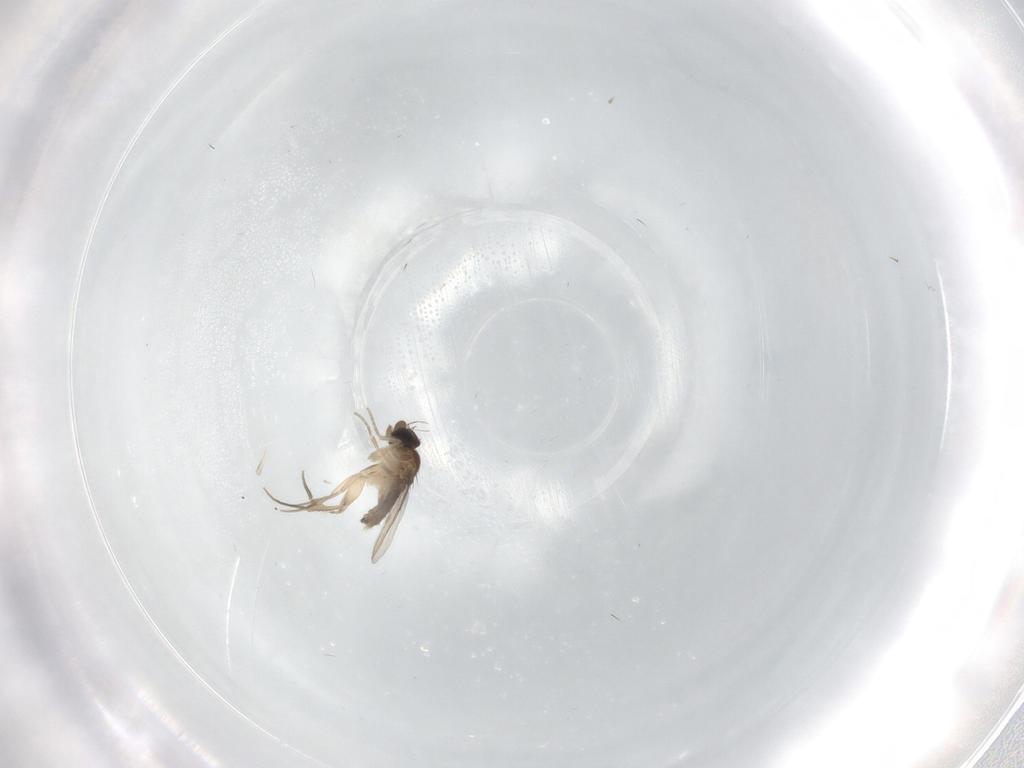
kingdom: Animalia
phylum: Arthropoda
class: Insecta
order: Diptera
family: Phoridae
